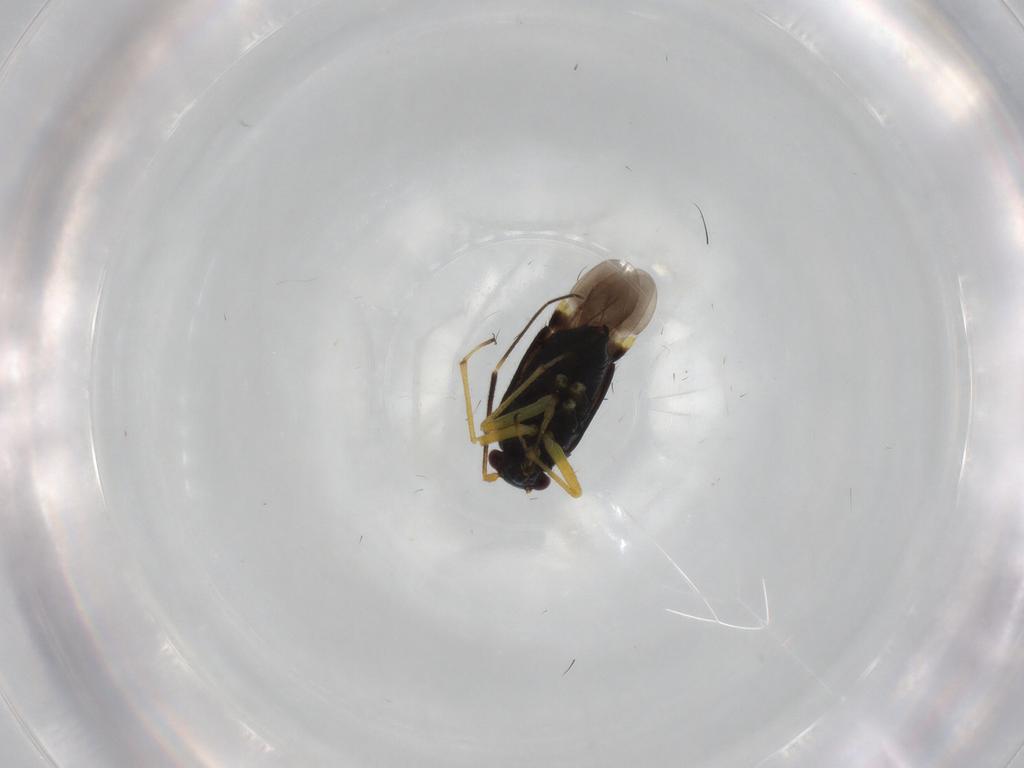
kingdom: Animalia
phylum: Arthropoda
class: Insecta
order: Hemiptera
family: Miridae
